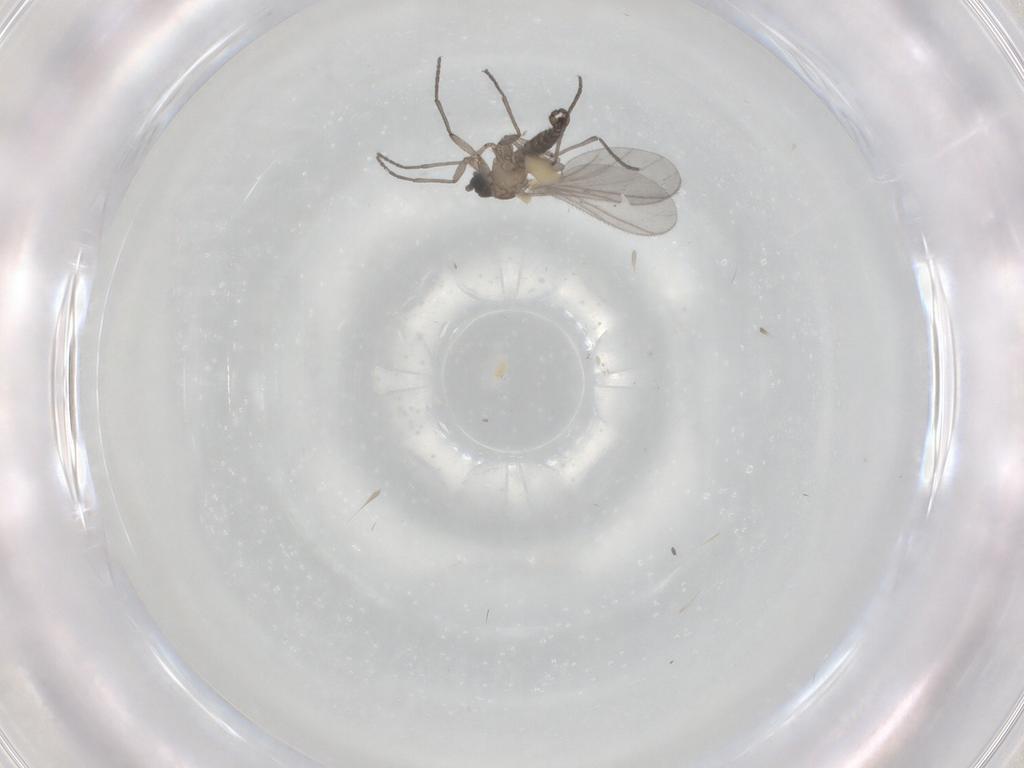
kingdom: Animalia
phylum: Arthropoda
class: Insecta
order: Diptera
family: Sciaridae
